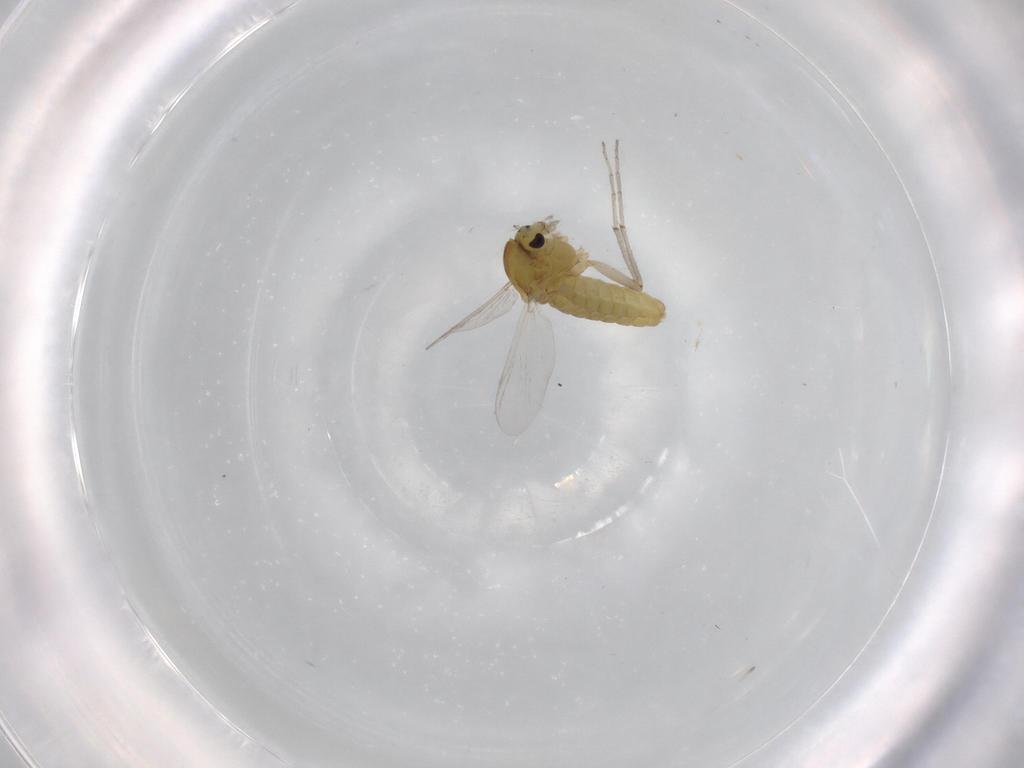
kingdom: Animalia
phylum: Arthropoda
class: Insecta
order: Diptera
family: Chironomidae
